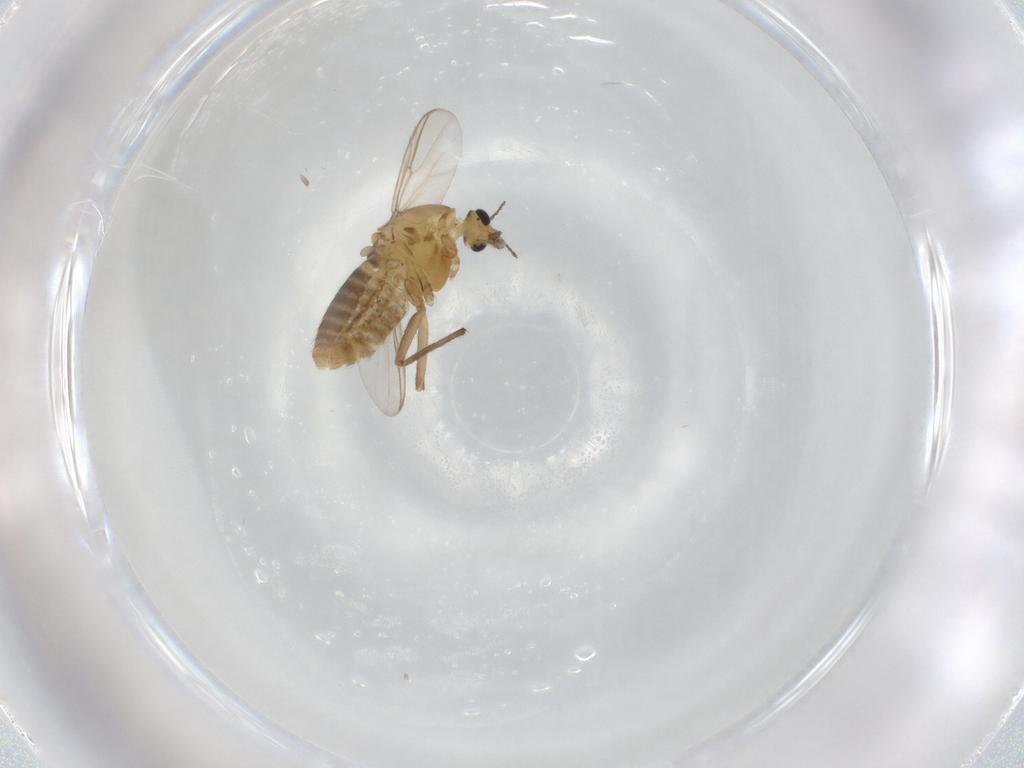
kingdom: Animalia
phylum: Arthropoda
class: Insecta
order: Diptera
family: Chironomidae
